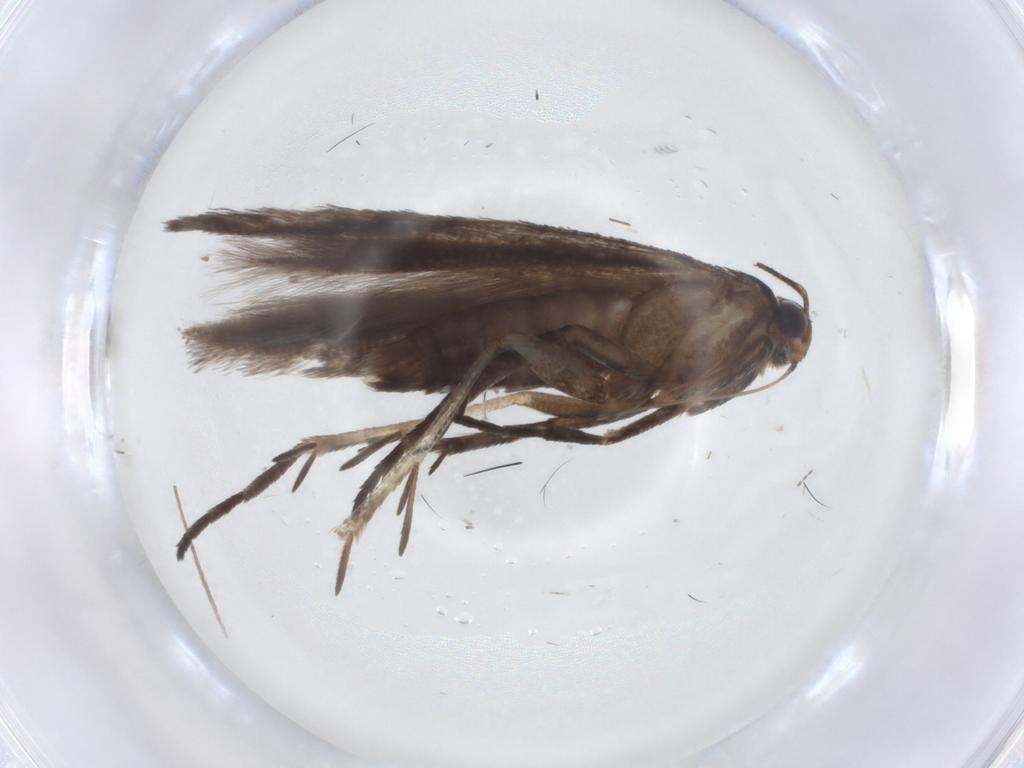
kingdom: Animalia
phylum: Arthropoda
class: Insecta
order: Lepidoptera
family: Gelechiidae
